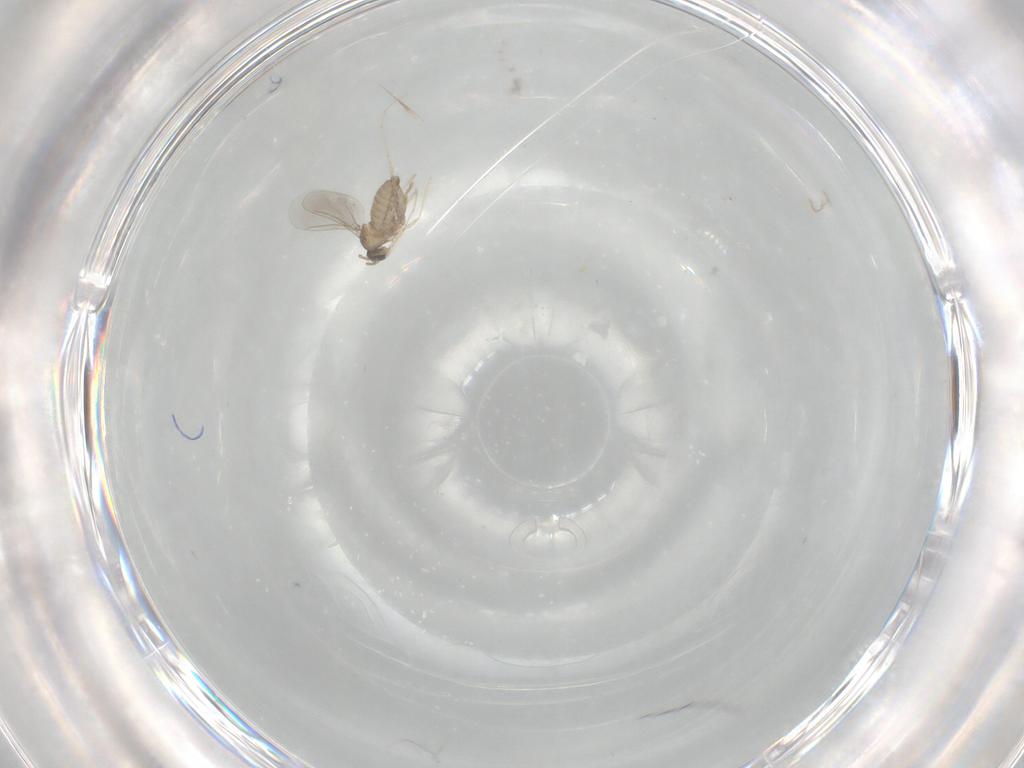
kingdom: Animalia
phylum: Arthropoda
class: Insecta
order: Diptera
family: Cecidomyiidae
